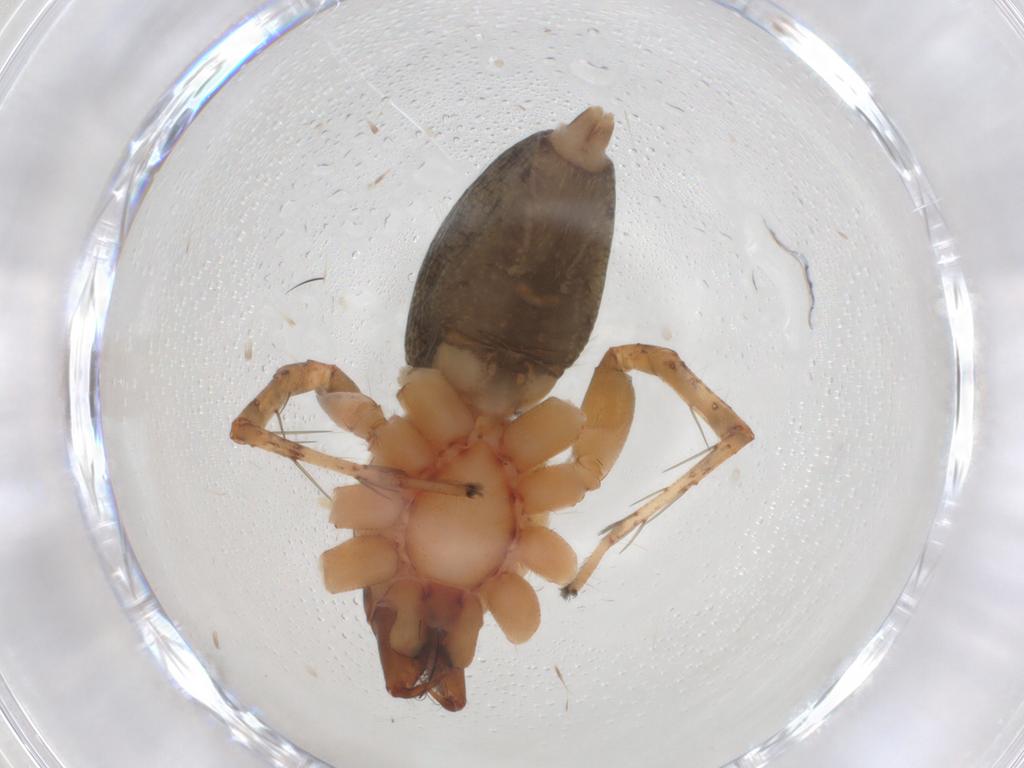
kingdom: Animalia
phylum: Arthropoda
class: Arachnida
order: Araneae
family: Anyphaenidae
